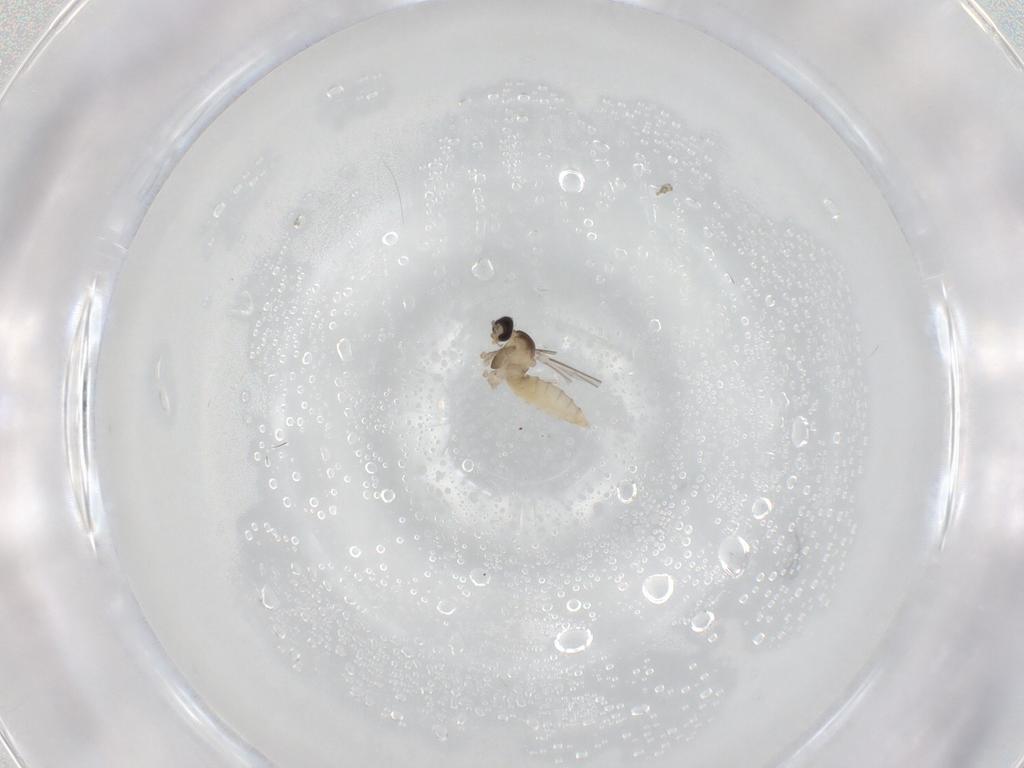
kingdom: Animalia
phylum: Arthropoda
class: Insecta
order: Diptera
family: Cecidomyiidae
